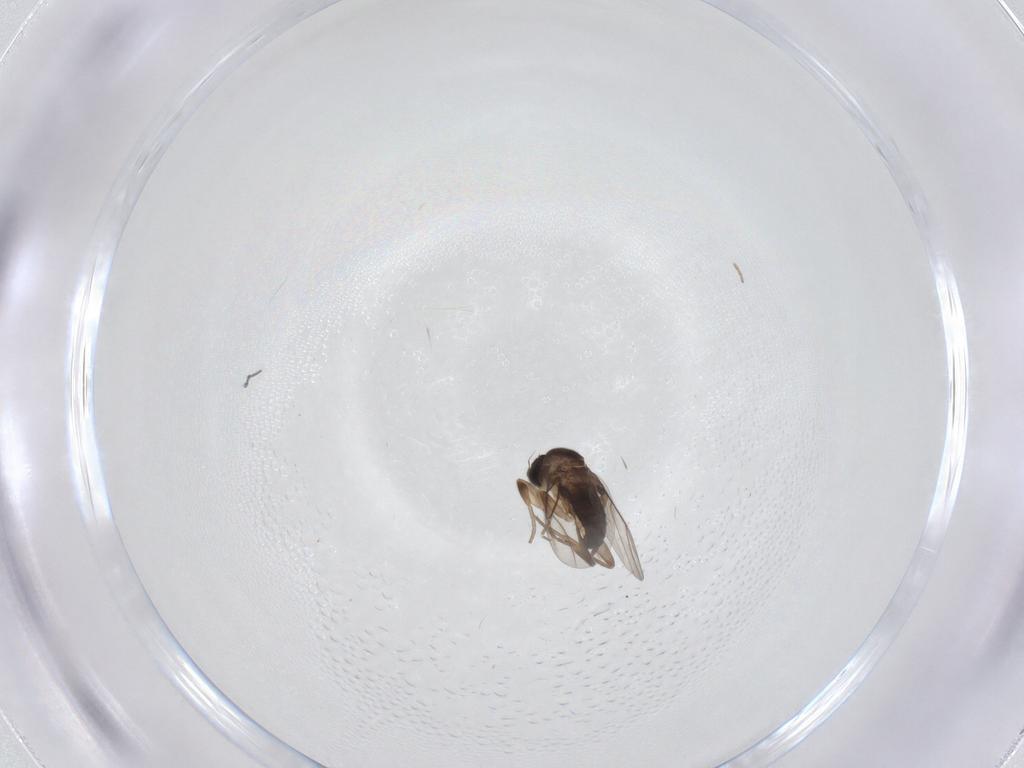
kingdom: Animalia
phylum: Arthropoda
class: Insecta
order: Diptera
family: Phoridae
